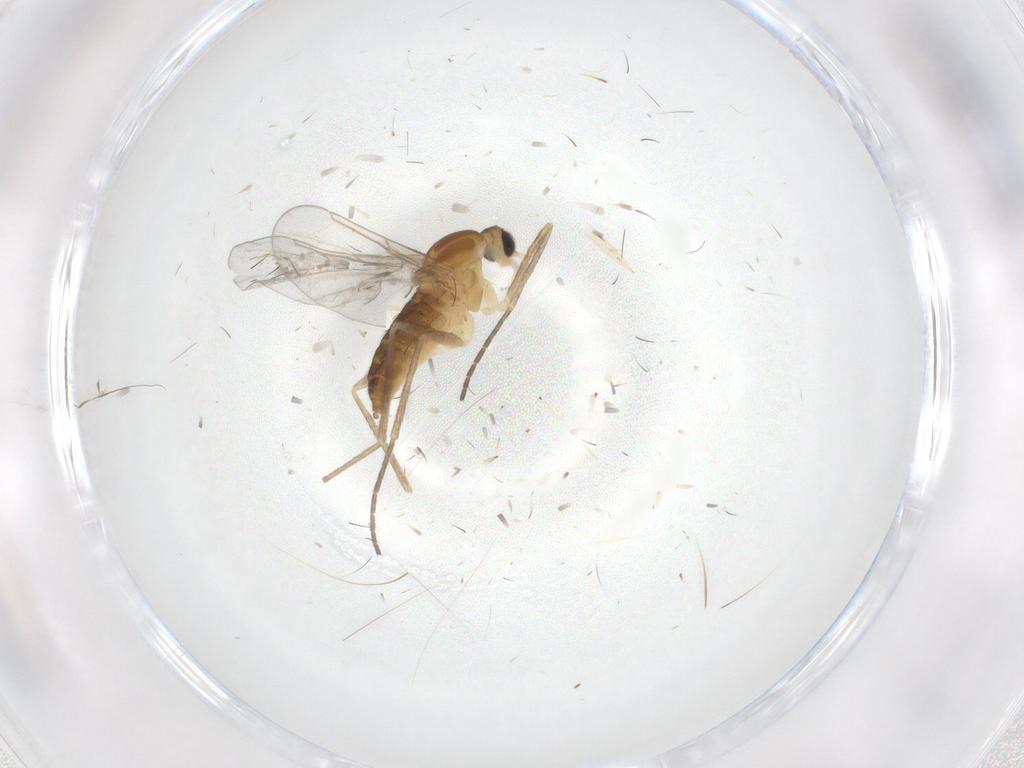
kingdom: Animalia
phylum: Arthropoda
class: Insecta
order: Diptera
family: Cecidomyiidae
